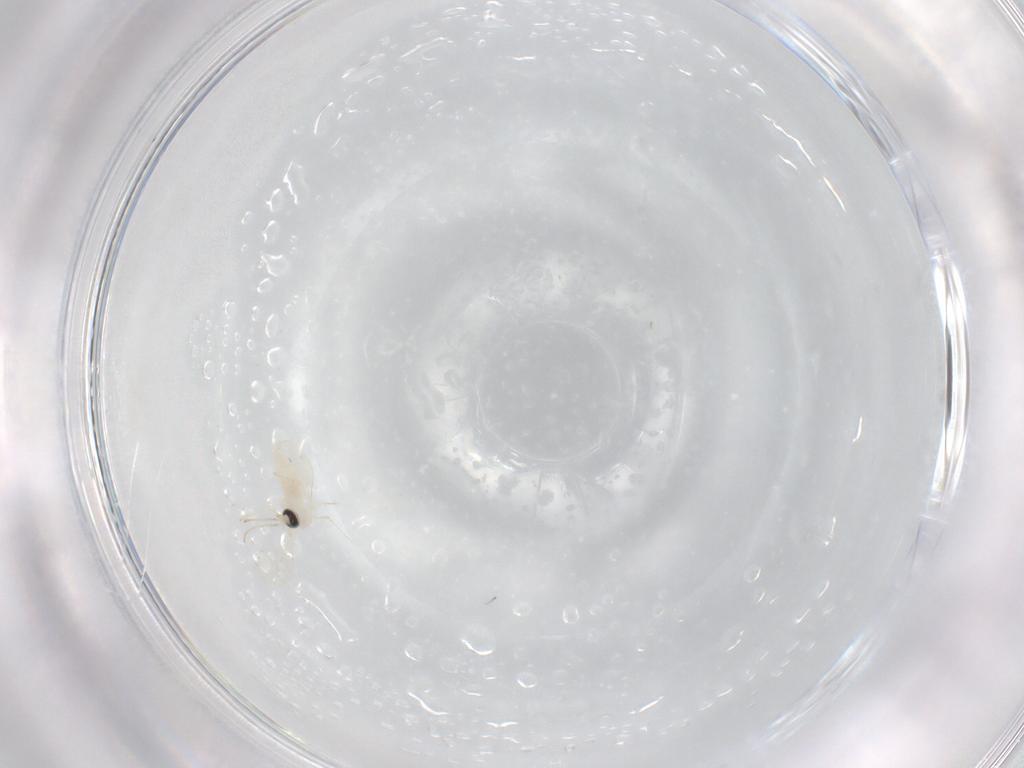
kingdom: Animalia
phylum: Arthropoda
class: Insecta
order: Diptera
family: Cecidomyiidae
